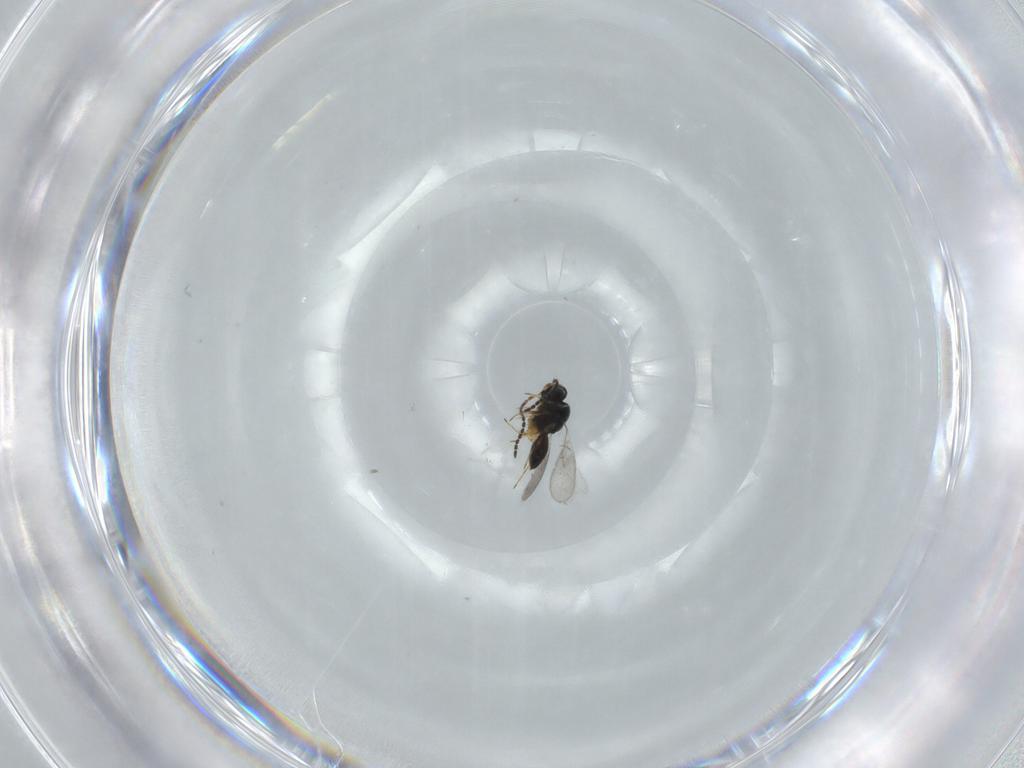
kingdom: Animalia
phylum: Arthropoda
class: Insecta
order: Hymenoptera
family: Scelionidae
